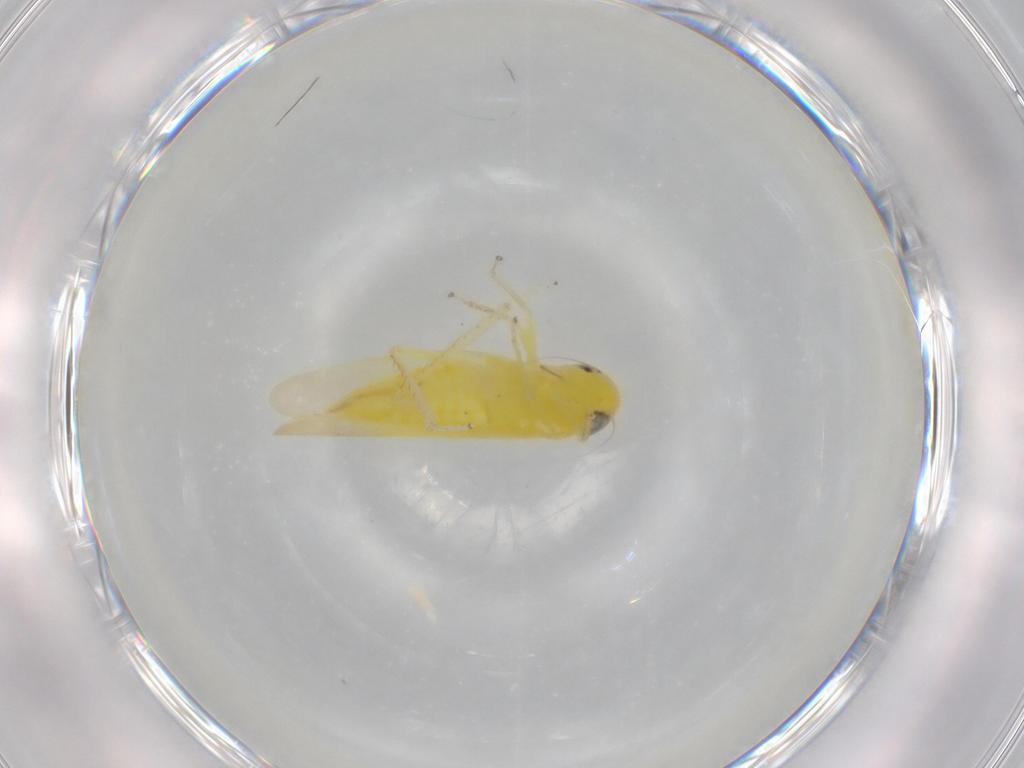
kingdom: Animalia
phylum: Arthropoda
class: Insecta
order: Hemiptera
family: Cicadellidae
